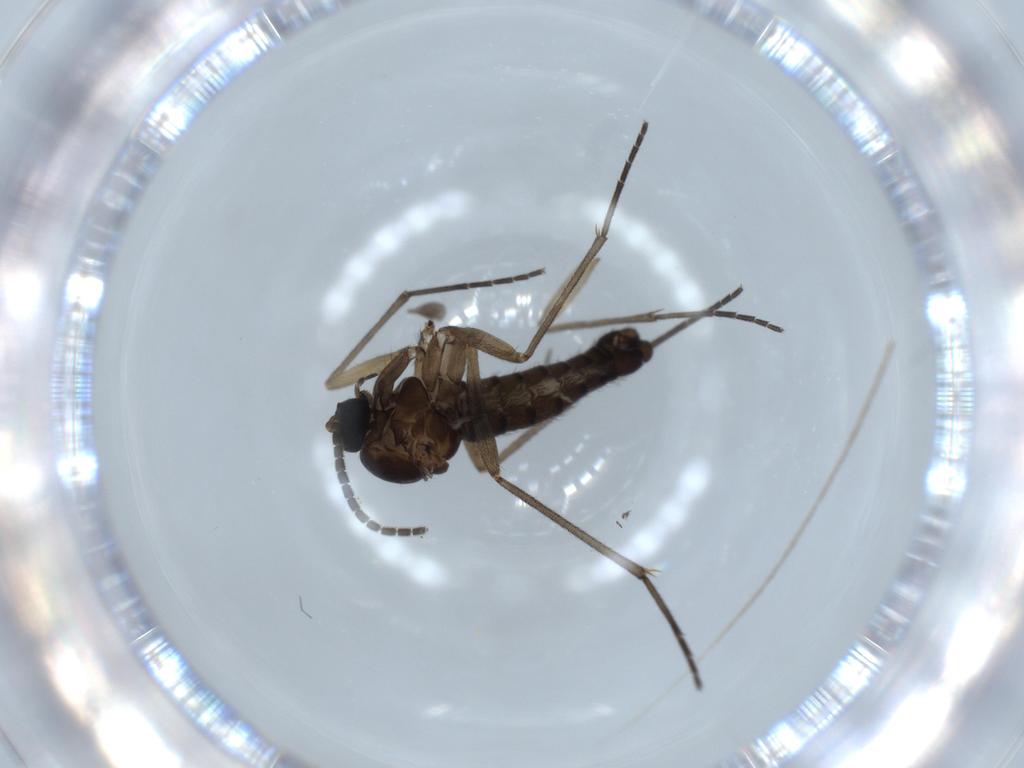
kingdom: Animalia
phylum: Arthropoda
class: Insecta
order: Diptera
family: Sciaridae
